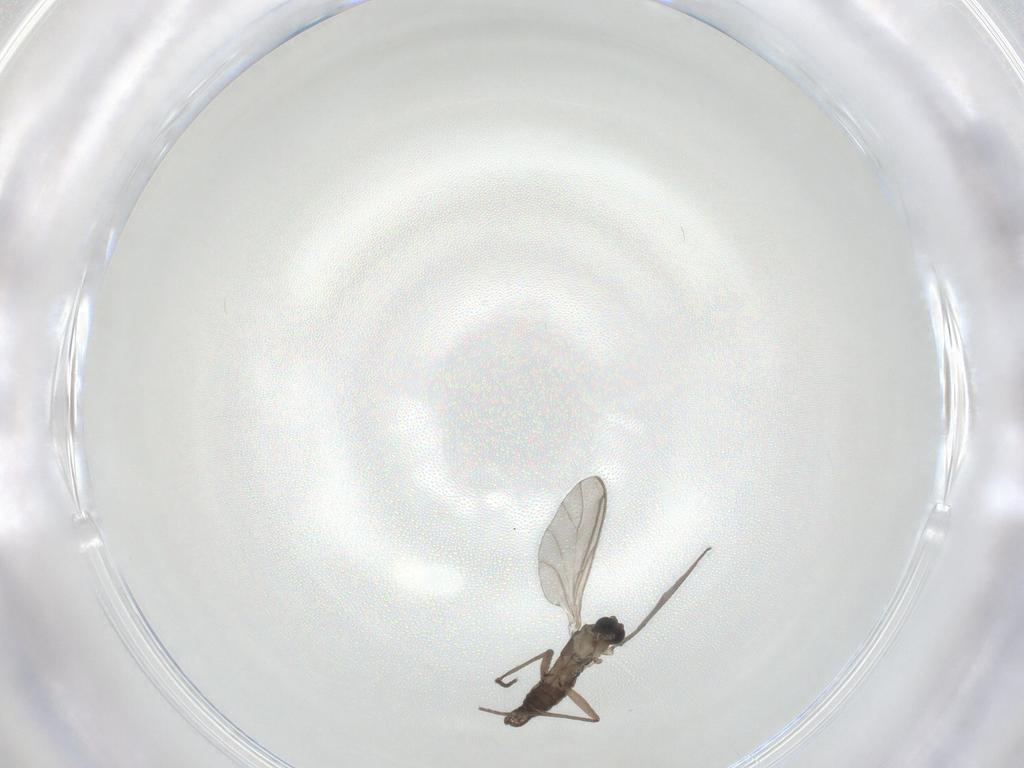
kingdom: Animalia
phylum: Arthropoda
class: Insecta
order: Diptera
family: Sciaridae
